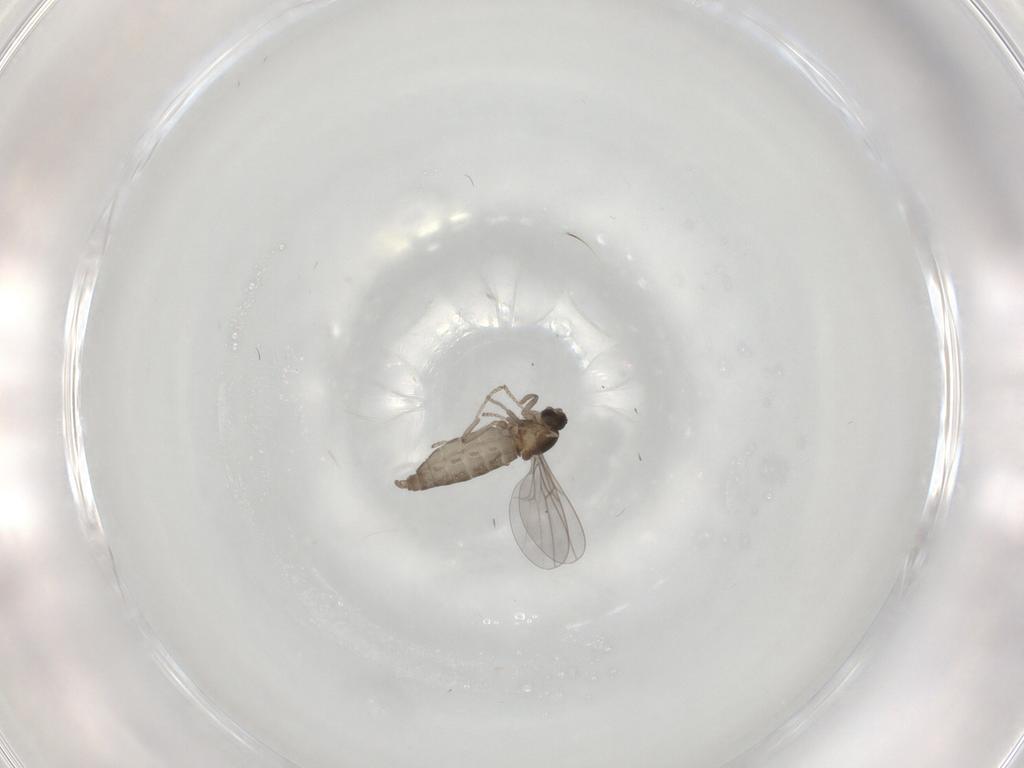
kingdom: Animalia
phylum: Arthropoda
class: Insecta
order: Diptera
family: Cecidomyiidae
